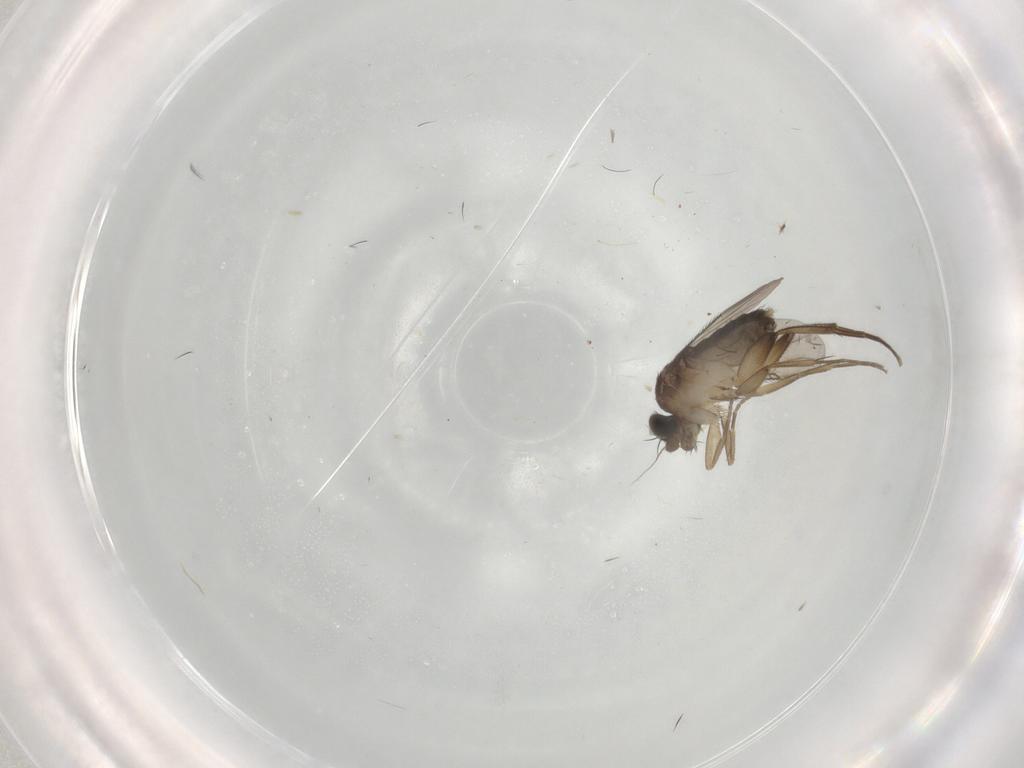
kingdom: Animalia
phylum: Arthropoda
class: Insecta
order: Diptera
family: Phoridae
